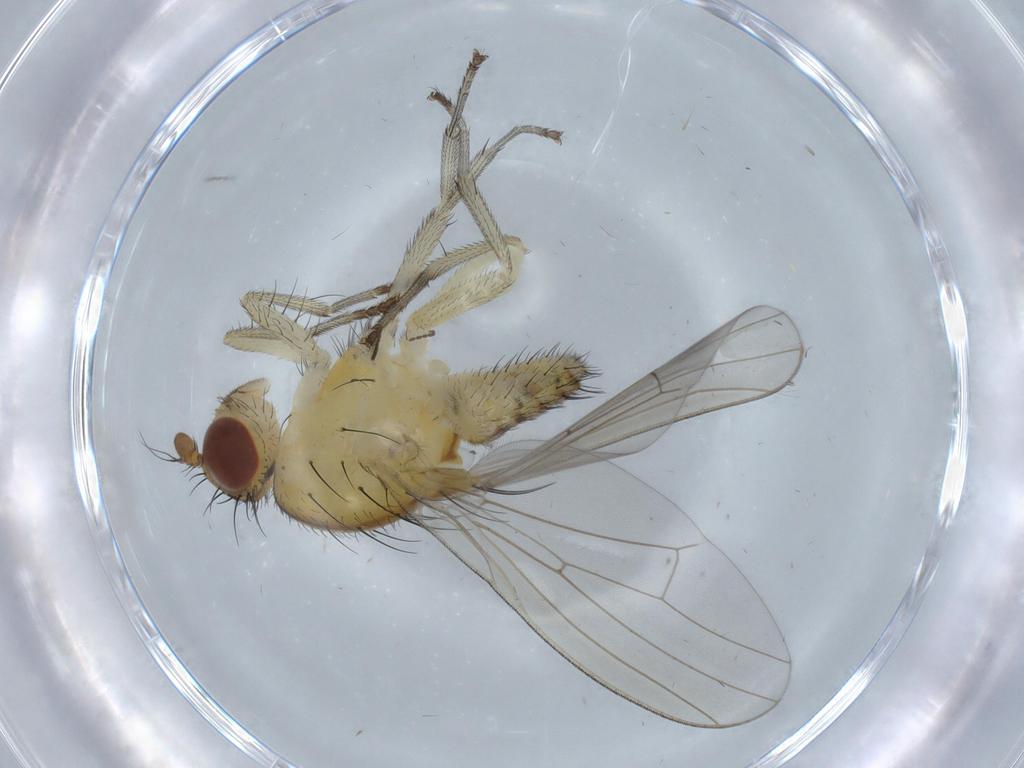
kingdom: Animalia
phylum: Arthropoda
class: Insecta
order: Diptera
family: Lauxaniidae
